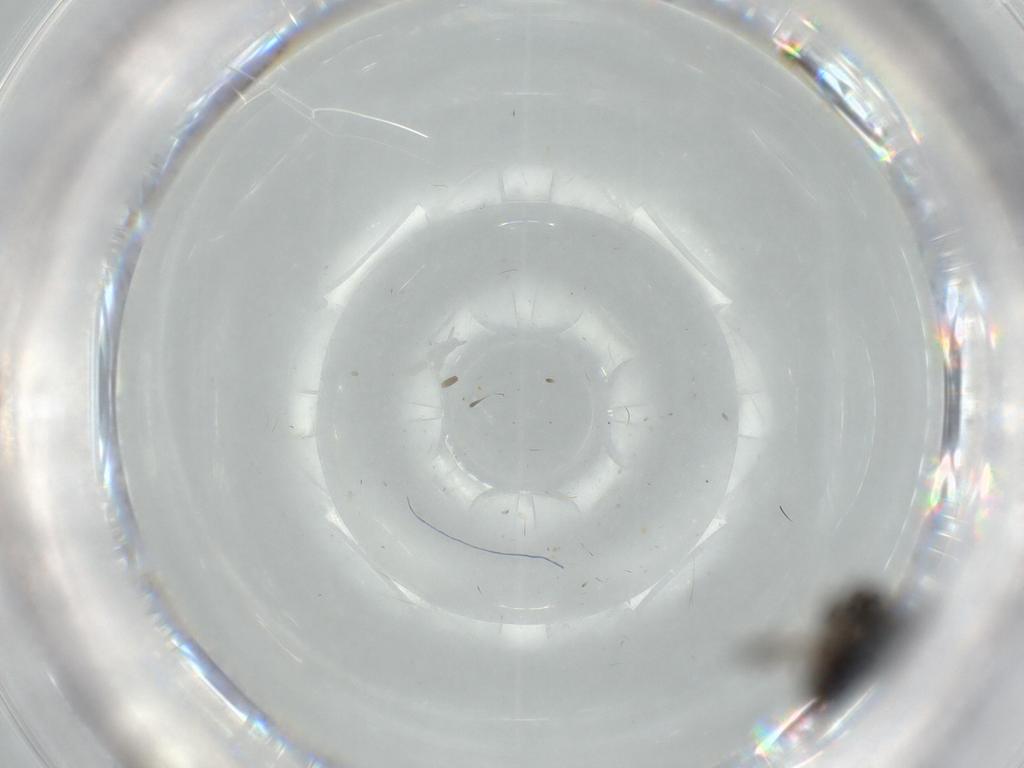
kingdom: Animalia
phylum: Arthropoda
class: Insecta
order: Diptera
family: Hybotidae
